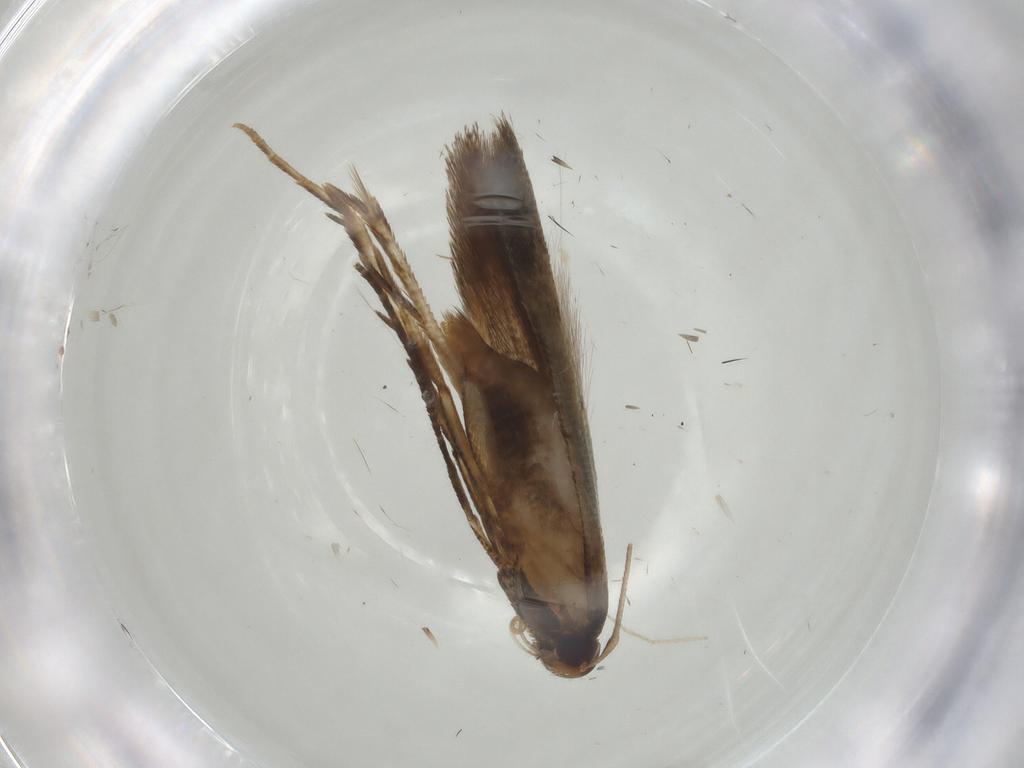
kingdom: Animalia
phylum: Arthropoda
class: Insecta
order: Lepidoptera
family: Cosmopterigidae
